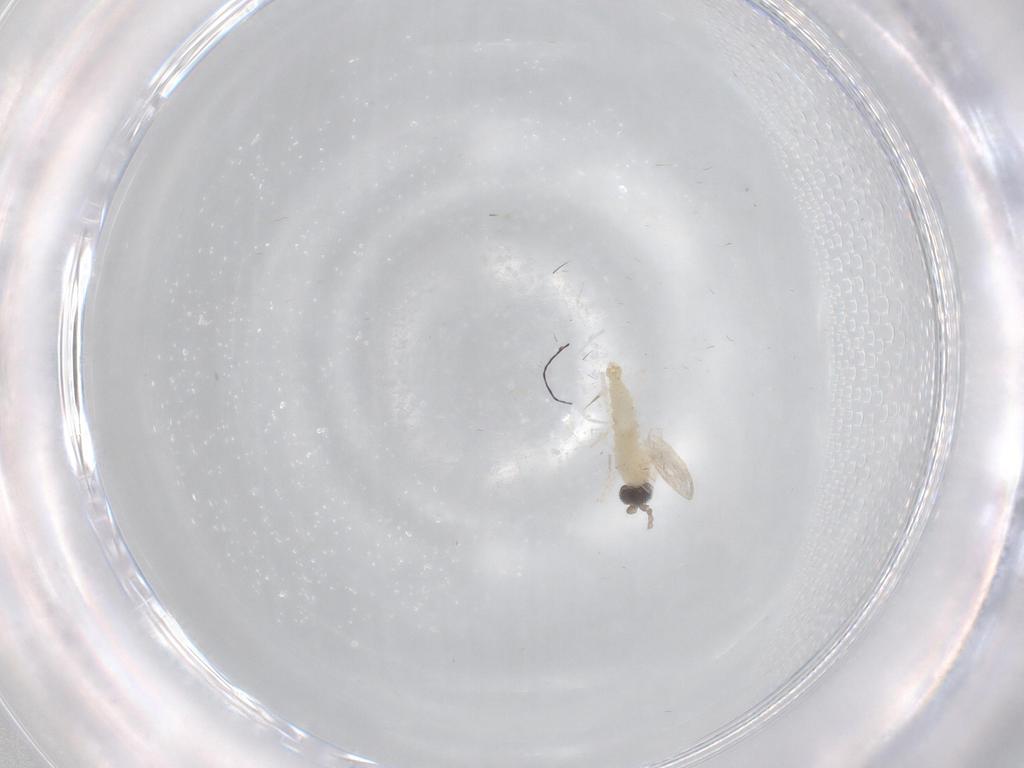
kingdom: Animalia
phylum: Arthropoda
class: Insecta
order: Diptera
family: Cecidomyiidae
